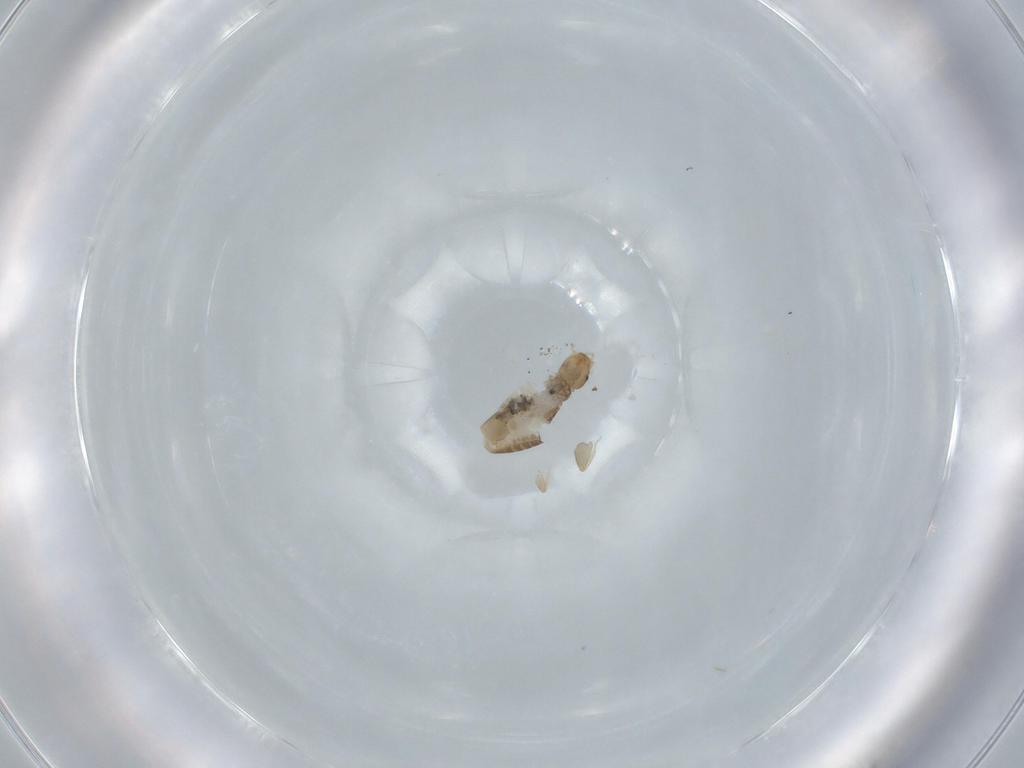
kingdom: Animalia
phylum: Arthropoda
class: Insecta
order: Psocodea
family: Liposcelididae
